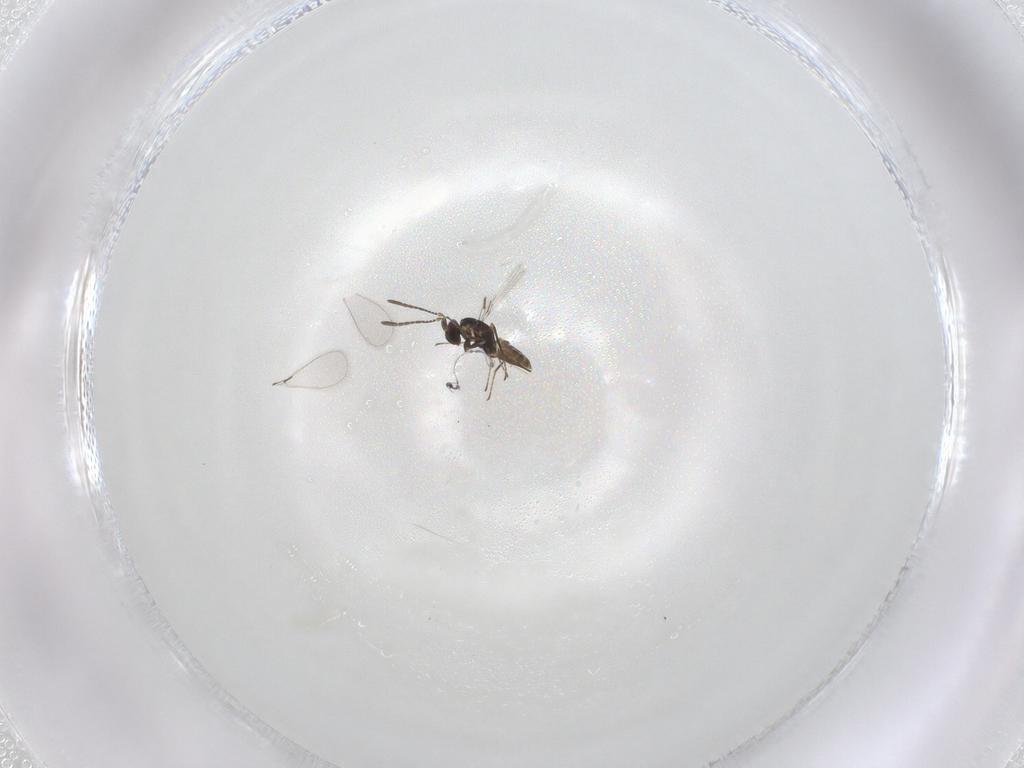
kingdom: Animalia
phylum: Arthropoda
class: Insecta
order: Hymenoptera
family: Mymaridae
